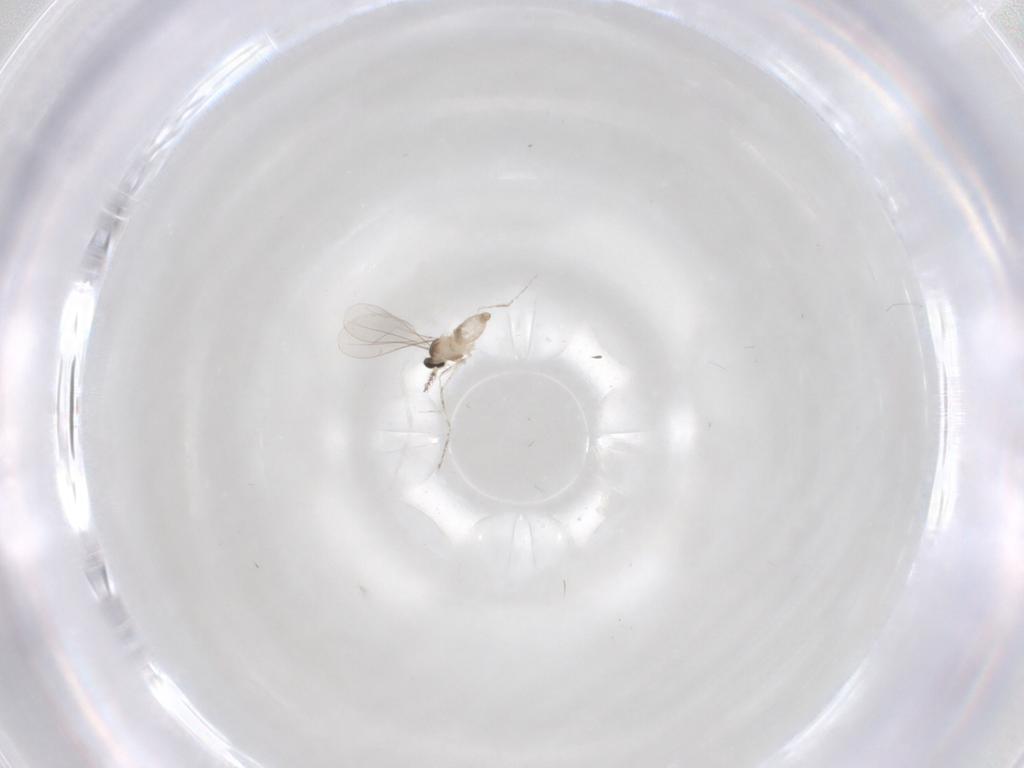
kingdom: Animalia
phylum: Arthropoda
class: Insecta
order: Diptera
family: Cecidomyiidae
